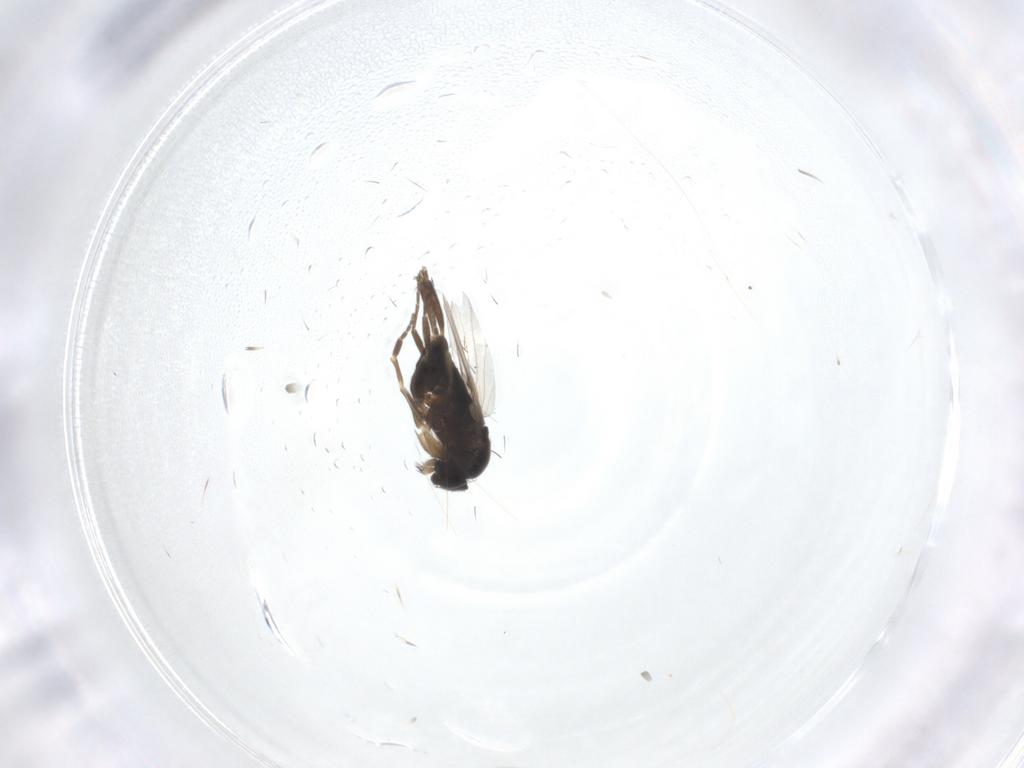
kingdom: Animalia
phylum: Arthropoda
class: Insecta
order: Diptera
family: Phoridae
